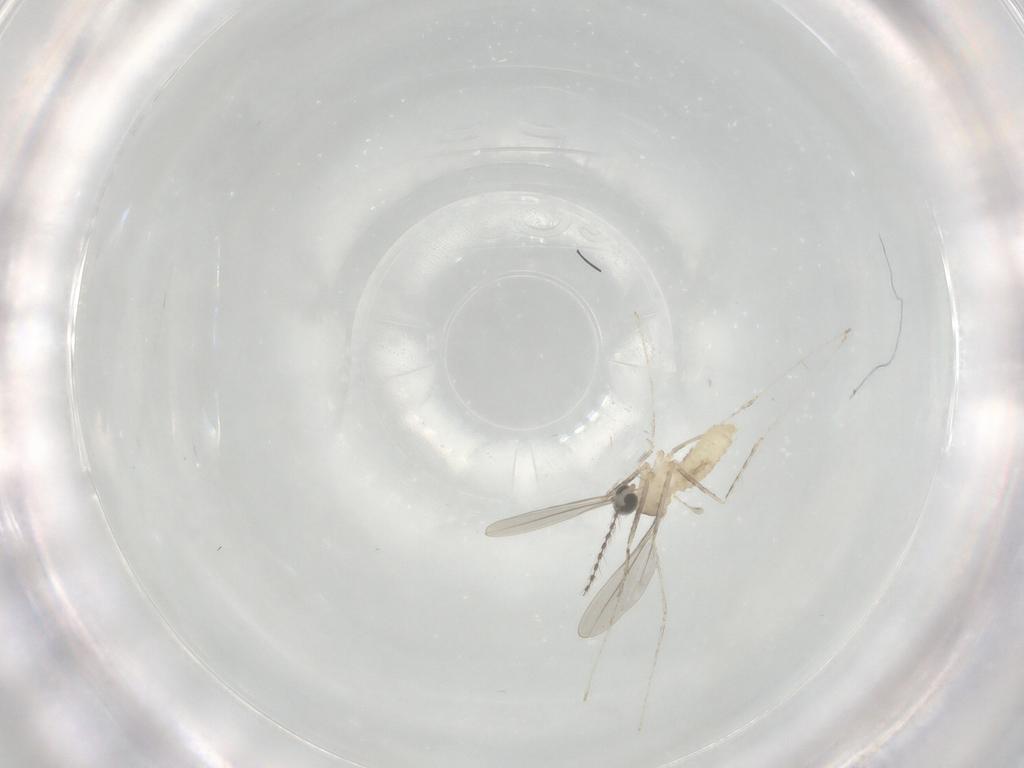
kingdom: Animalia
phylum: Arthropoda
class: Insecta
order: Diptera
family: Cecidomyiidae
